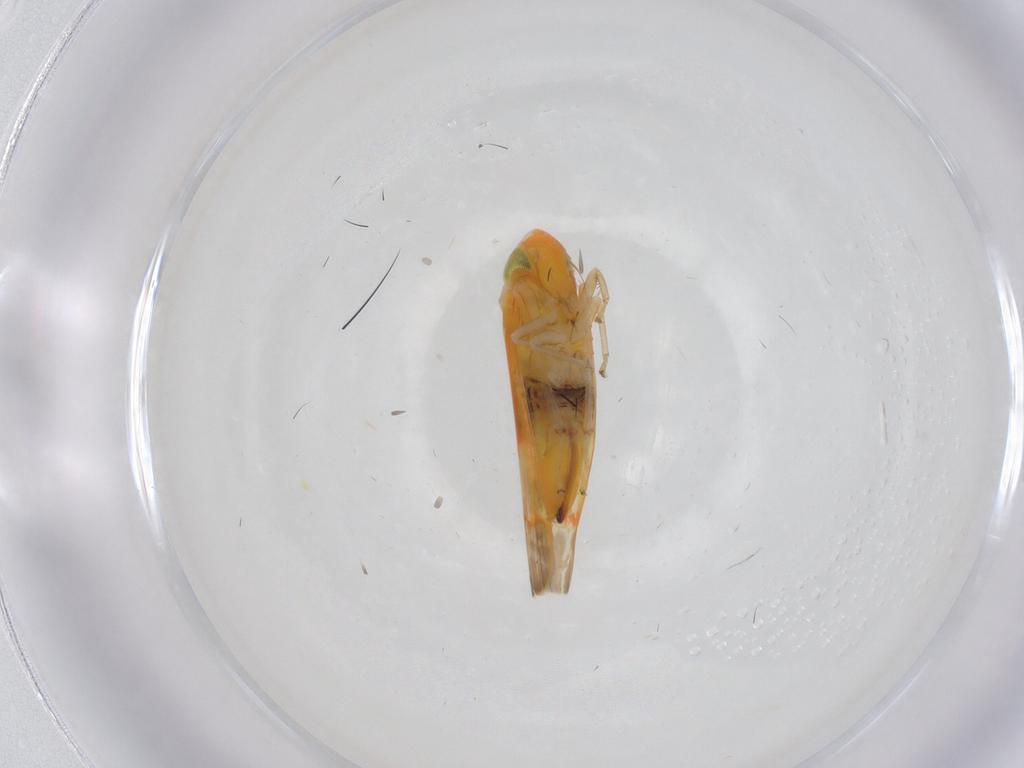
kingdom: Animalia
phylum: Arthropoda
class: Insecta
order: Hemiptera
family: Cicadellidae
